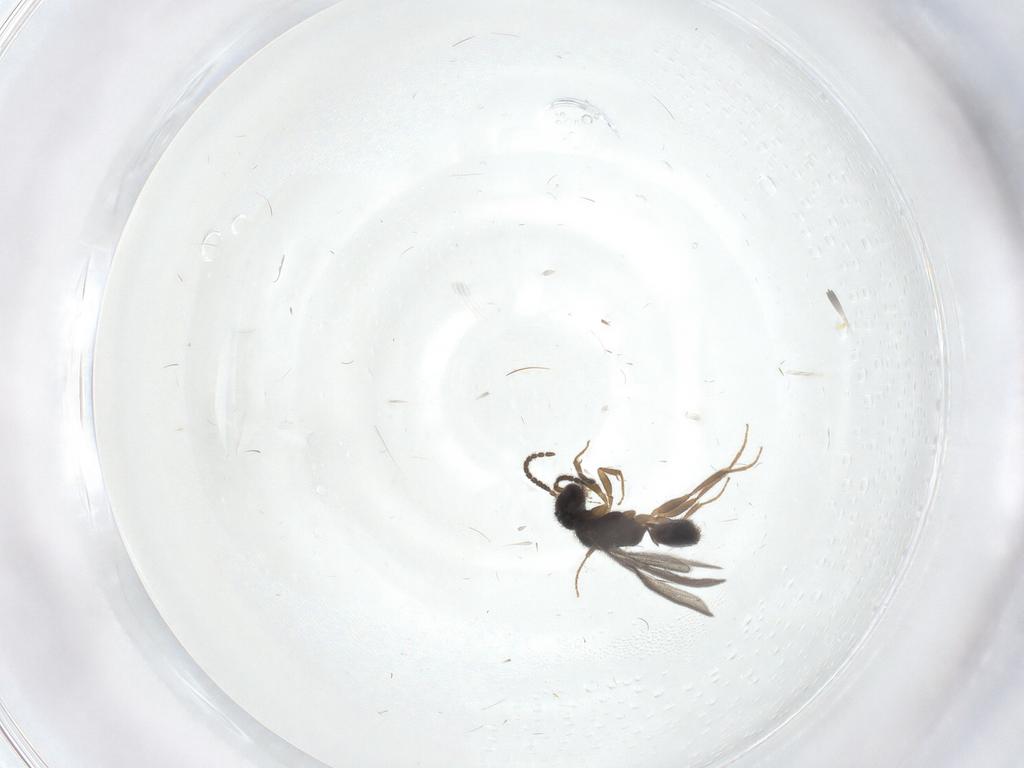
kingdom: Animalia
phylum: Arthropoda
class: Insecta
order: Hymenoptera
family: Bethylidae
